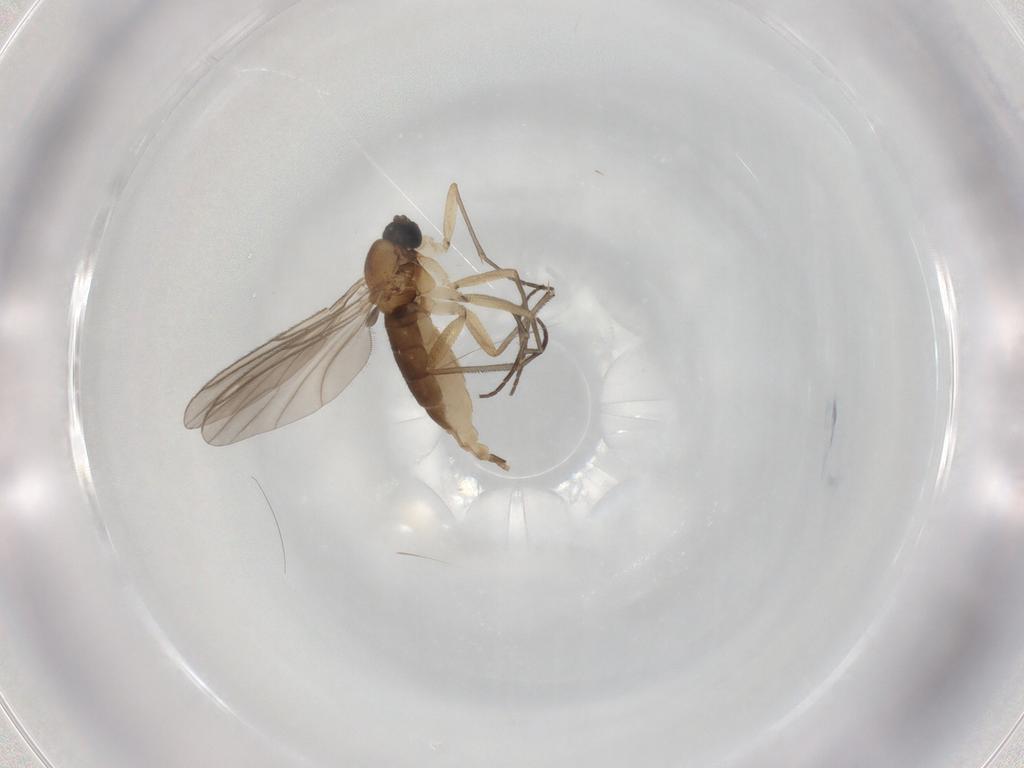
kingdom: Animalia
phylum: Arthropoda
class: Insecta
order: Diptera
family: Sciaridae
